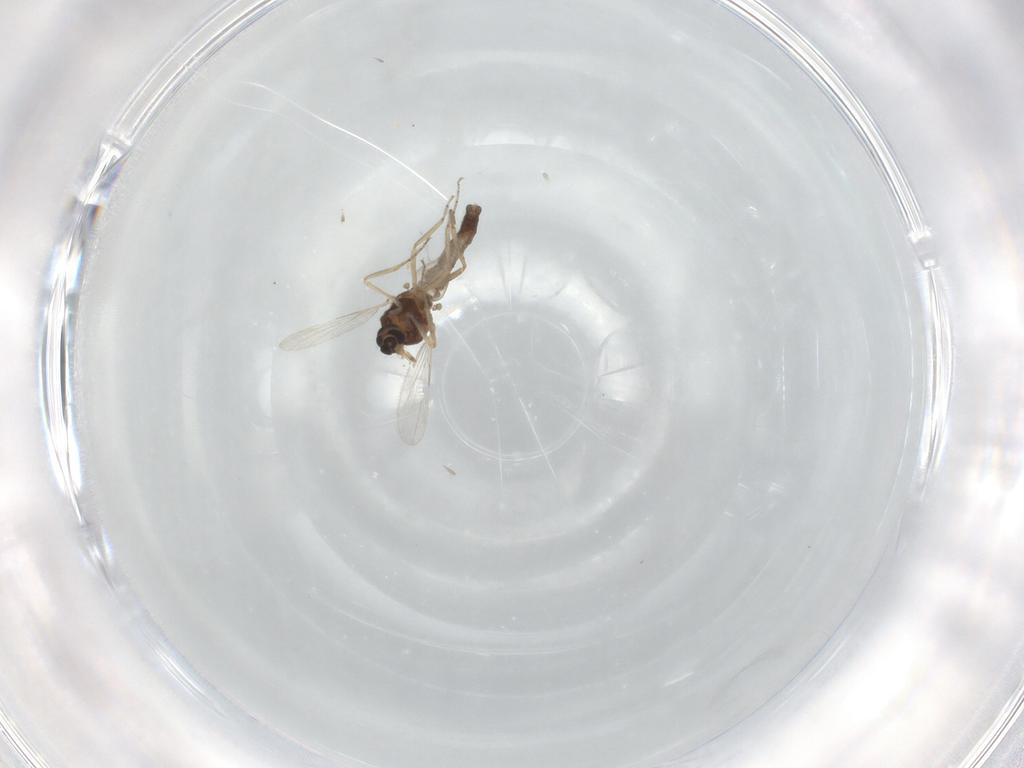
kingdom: Animalia
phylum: Arthropoda
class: Insecta
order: Diptera
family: Ceratopogonidae
